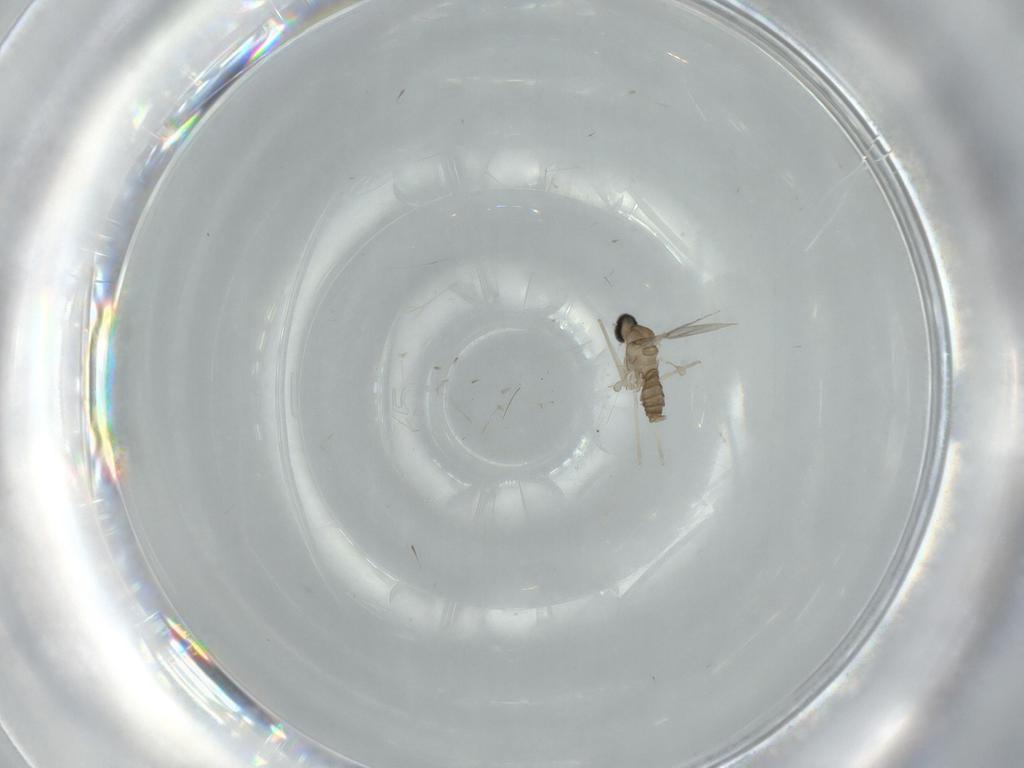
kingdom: Animalia
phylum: Arthropoda
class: Insecta
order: Diptera
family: Cecidomyiidae
